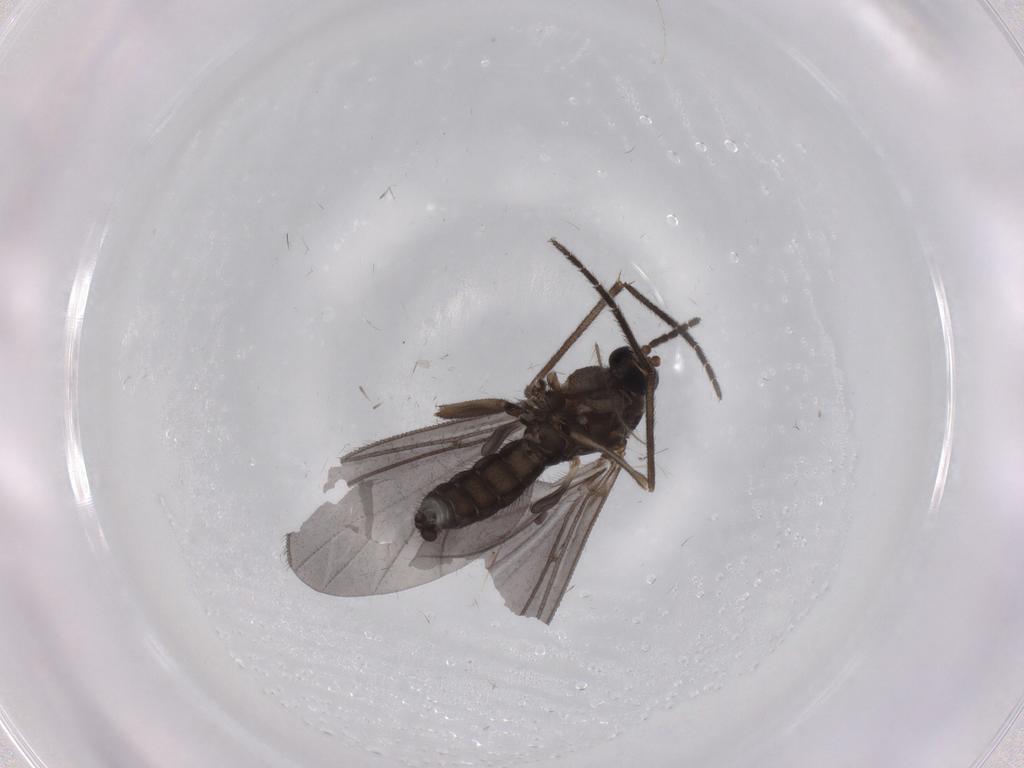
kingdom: Animalia
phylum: Arthropoda
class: Insecta
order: Diptera
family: Sciaridae
